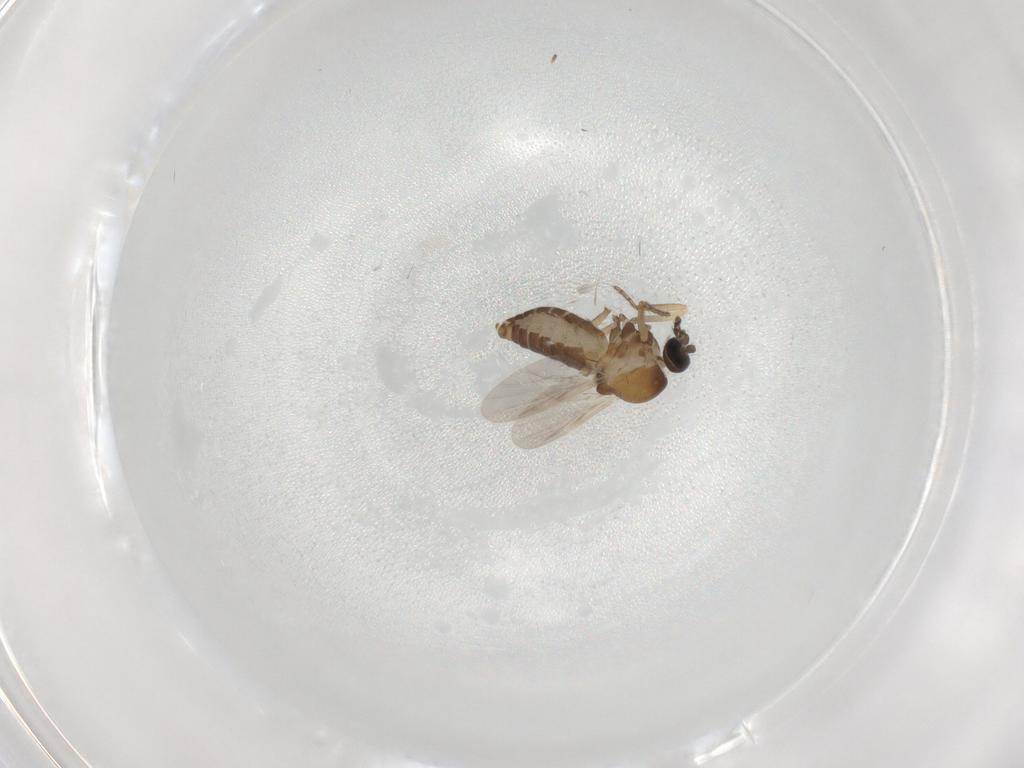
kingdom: Animalia
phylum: Arthropoda
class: Insecta
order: Diptera
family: Ceratopogonidae
